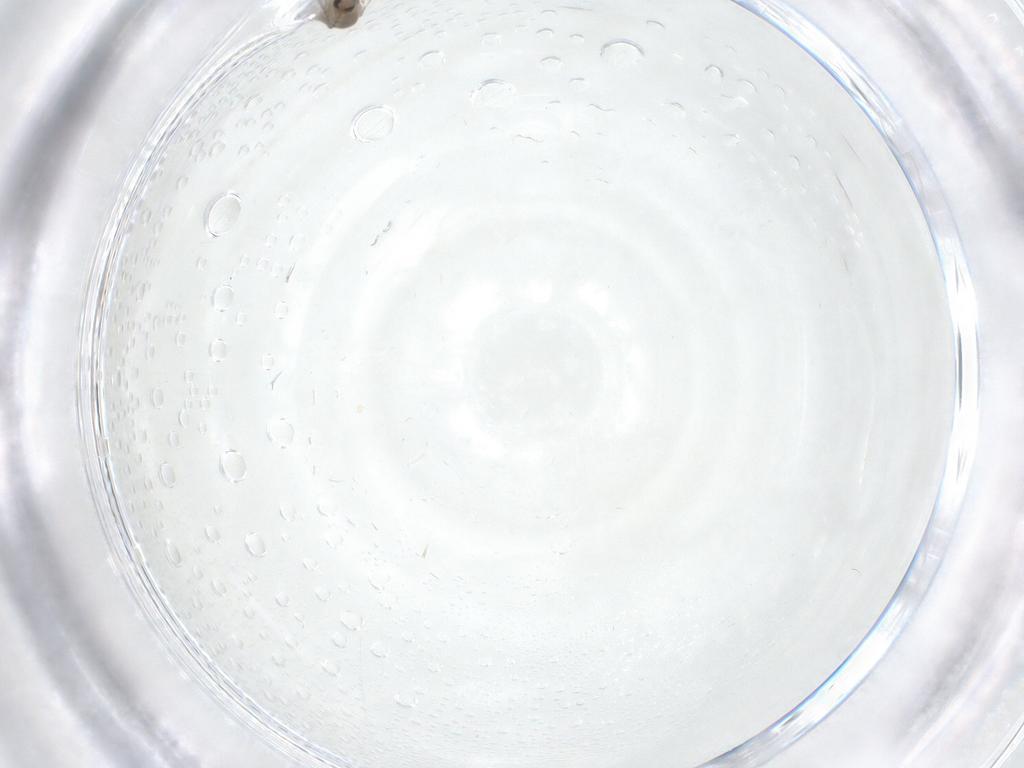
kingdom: Animalia
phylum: Arthropoda
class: Insecta
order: Diptera
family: Cecidomyiidae
